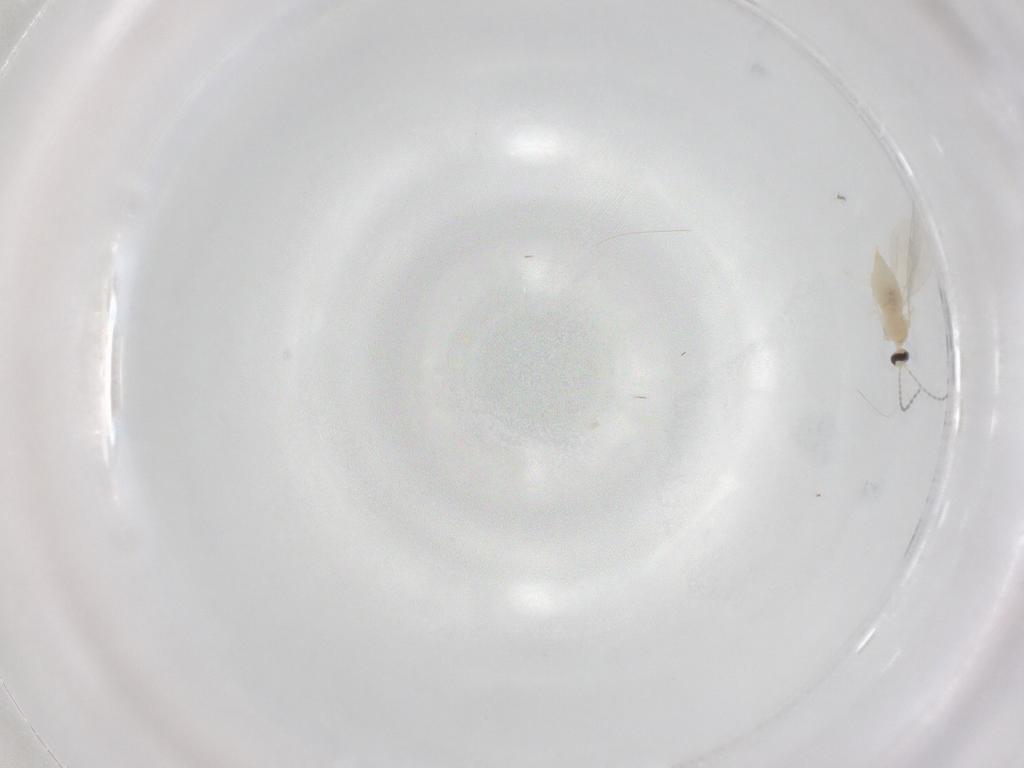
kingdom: Animalia
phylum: Arthropoda
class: Insecta
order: Diptera
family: Cecidomyiidae
